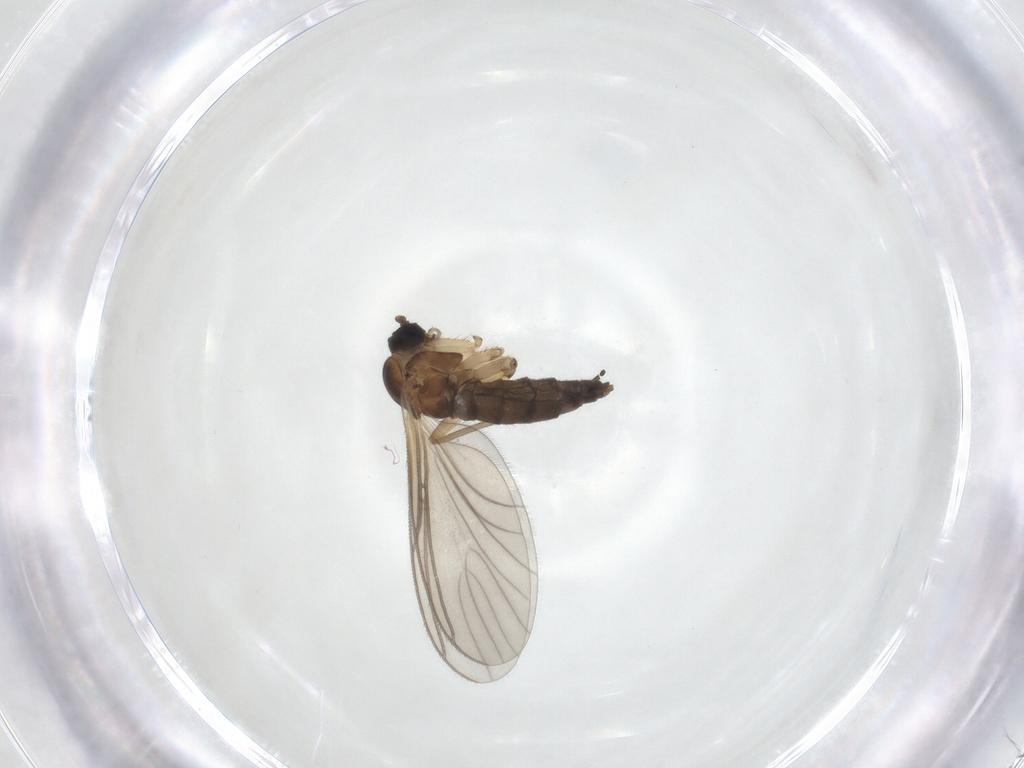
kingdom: Animalia
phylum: Arthropoda
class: Insecta
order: Diptera
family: Sciaridae
